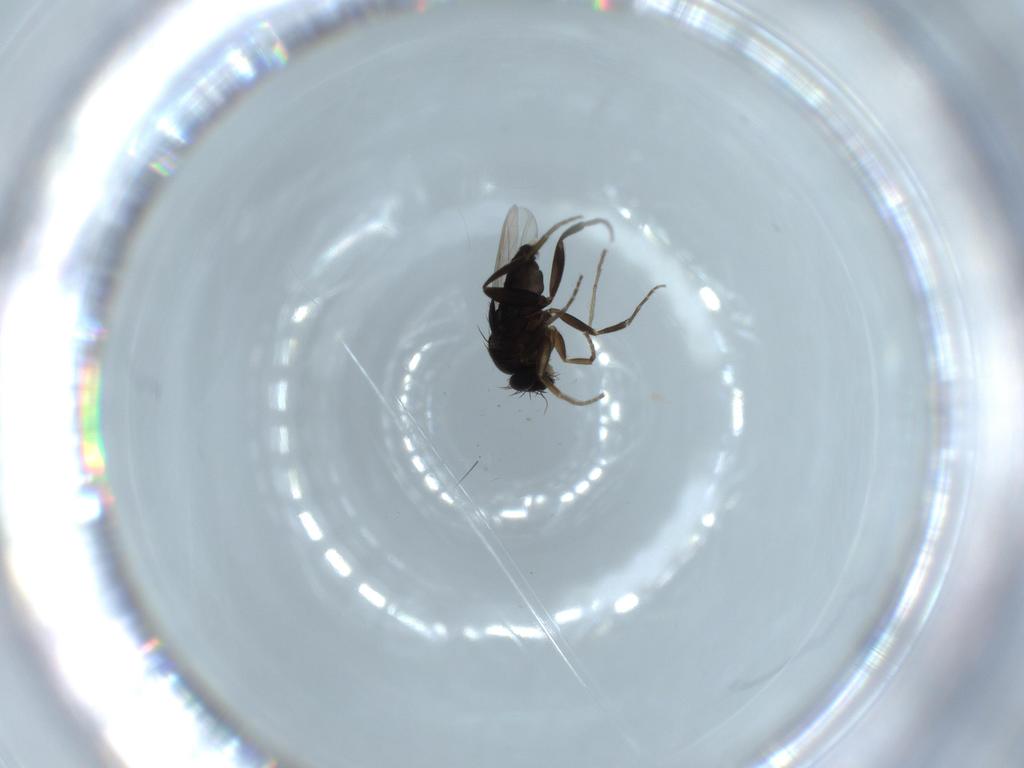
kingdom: Animalia
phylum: Arthropoda
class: Insecta
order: Diptera
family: Phoridae
